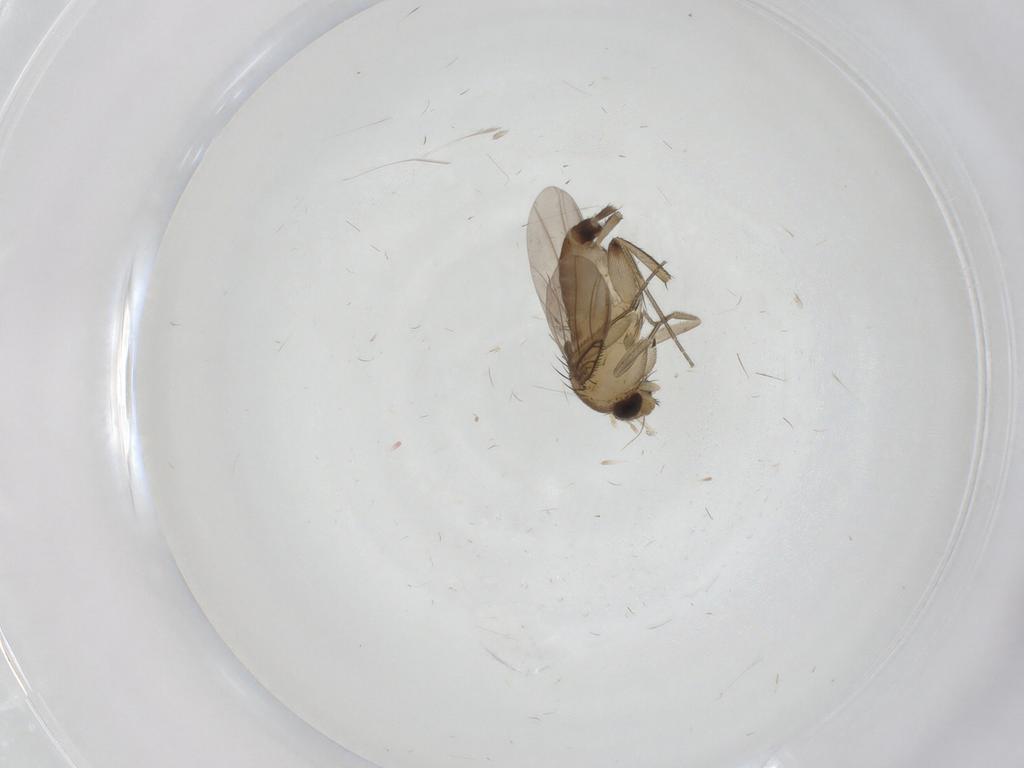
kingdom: Animalia
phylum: Arthropoda
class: Insecta
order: Diptera
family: Phoridae
